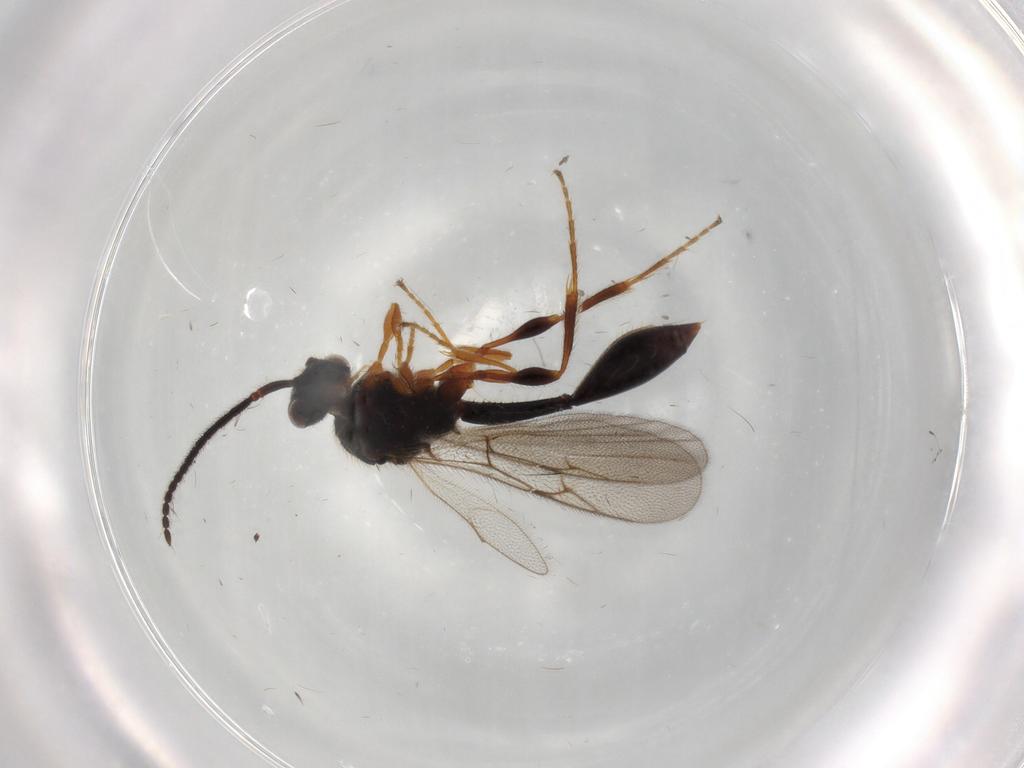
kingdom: Animalia
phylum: Arthropoda
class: Insecta
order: Hymenoptera
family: Diapriidae
